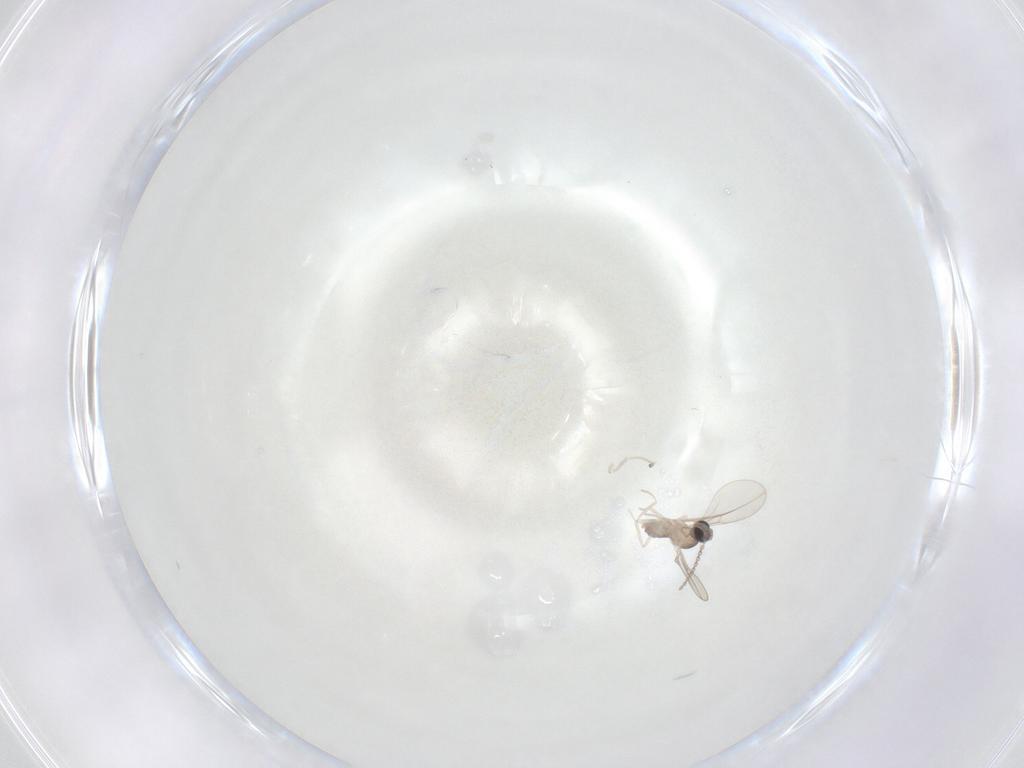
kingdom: Animalia
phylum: Arthropoda
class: Insecta
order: Diptera
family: Cecidomyiidae
